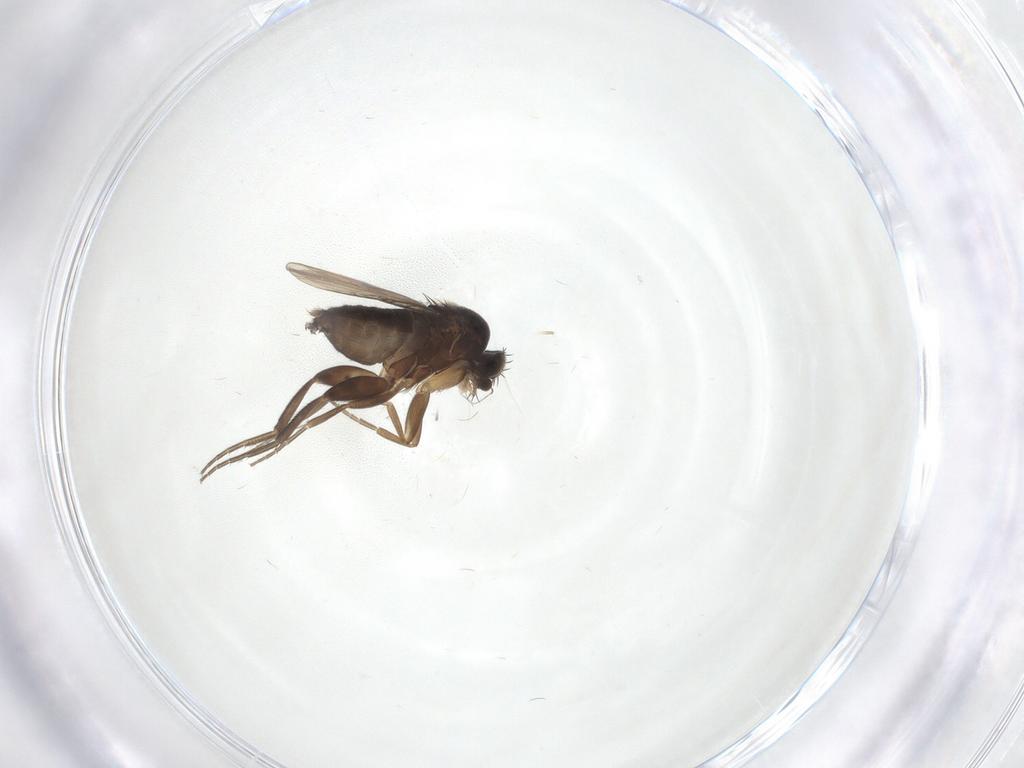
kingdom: Animalia
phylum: Arthropoda
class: Insecta
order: Diptera
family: Phoridae
